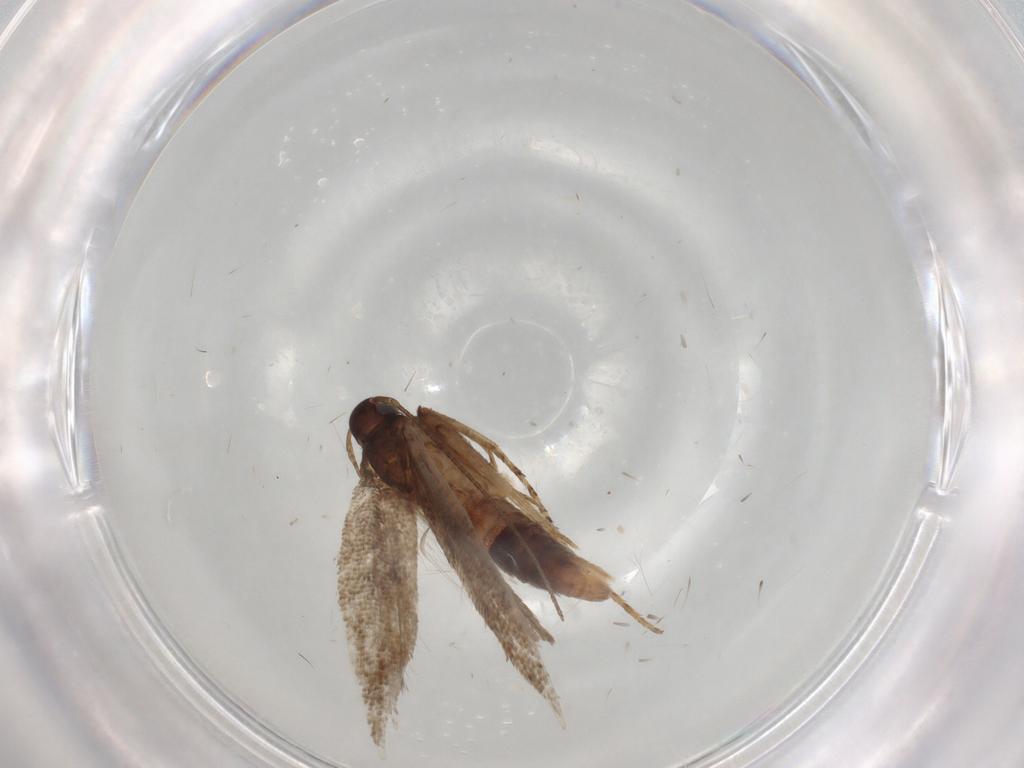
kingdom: Animalia
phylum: Arthropoda
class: Insecta
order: Lepidoptera
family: Gelechiidae
